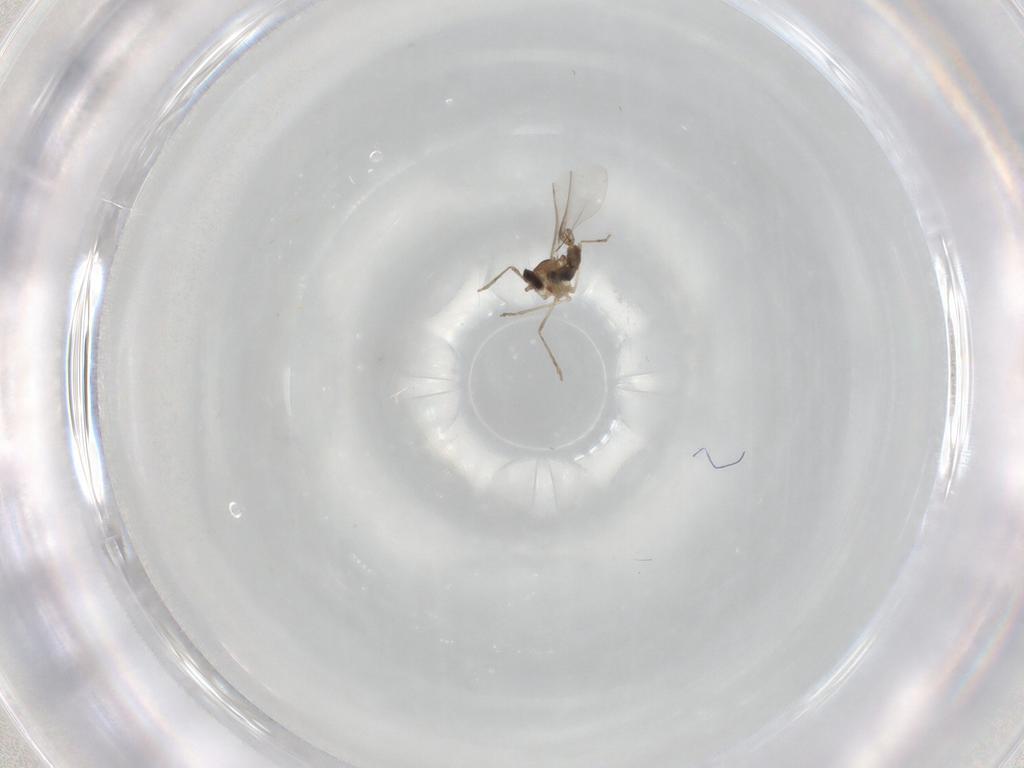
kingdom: Animalia
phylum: Arthropoda
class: Insecta
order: Diptera
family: Cecidomyiidae
